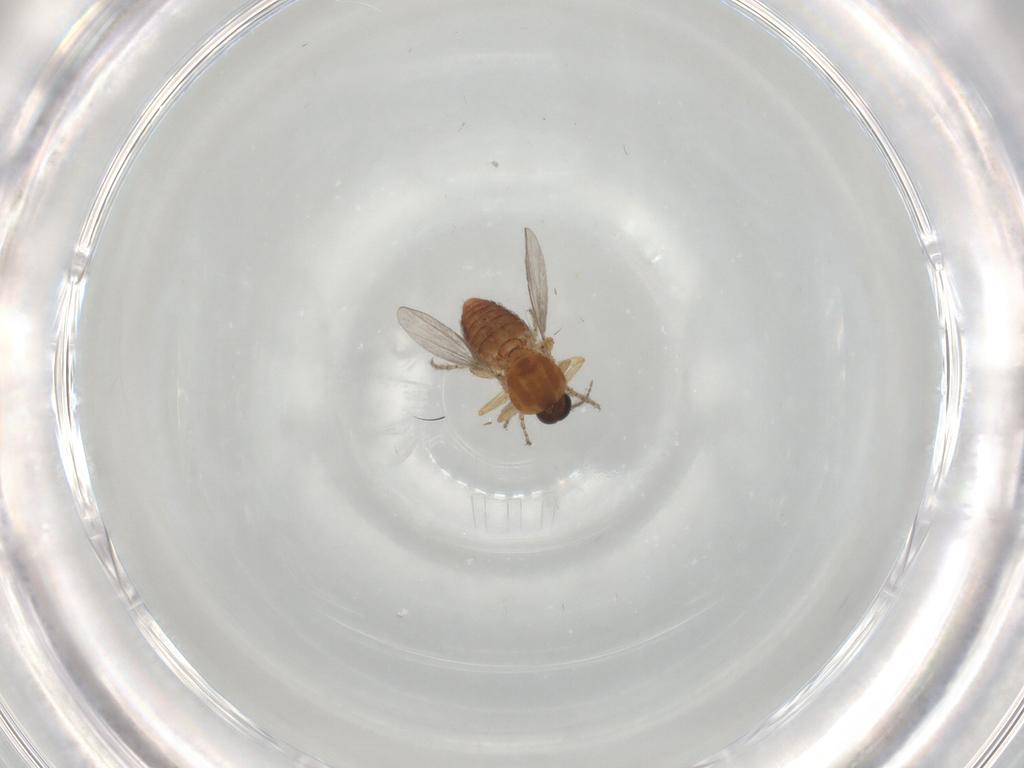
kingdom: Animalia
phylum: Arthropoda
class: Insecta
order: Diptera
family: Ceratopogonidae
